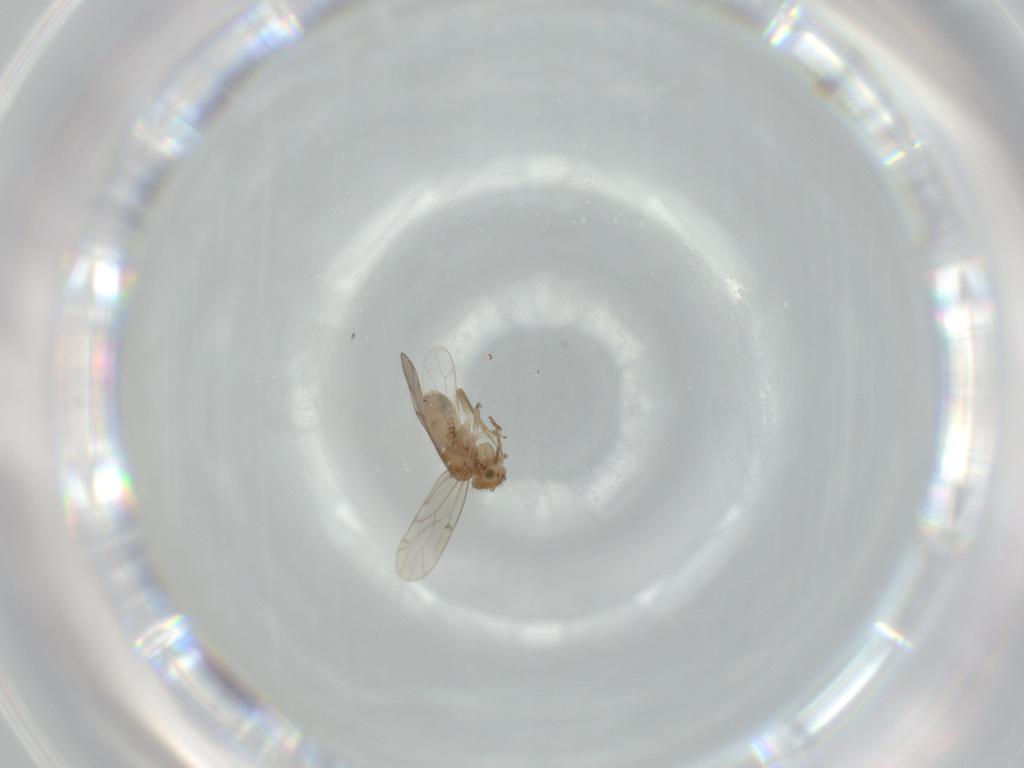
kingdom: Animalia
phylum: Arthropoda
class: Insecta
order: Psocodea
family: Ectopsocidae
